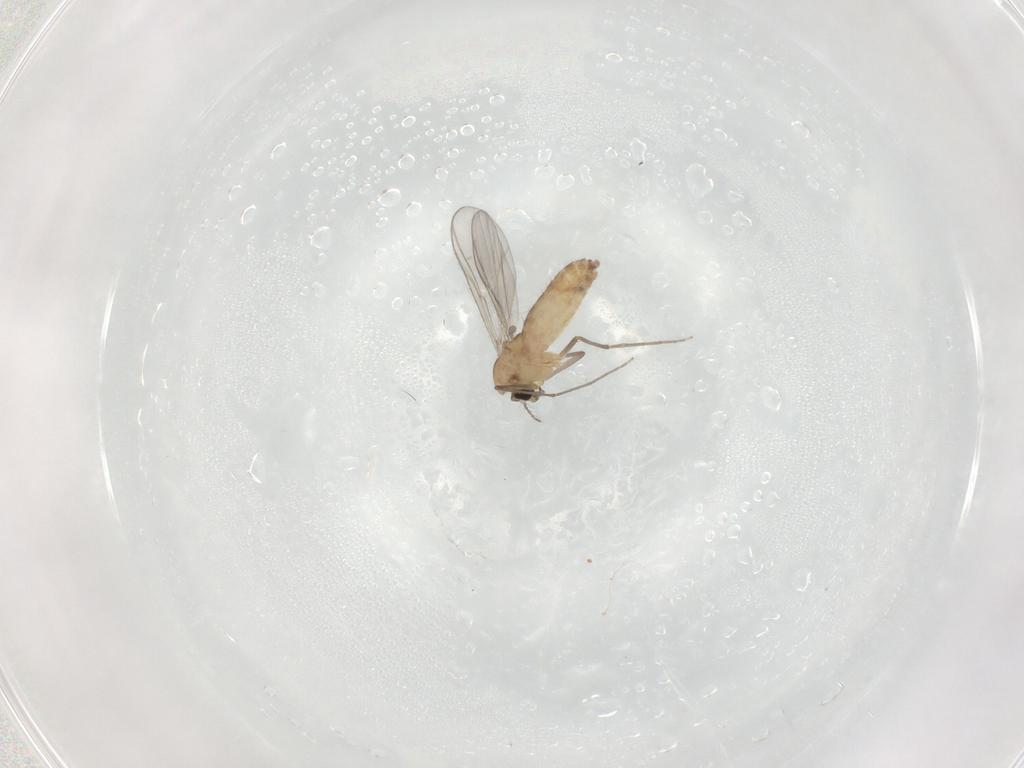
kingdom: Animalia
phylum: Arthropoda
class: Insecta
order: Diptera
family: Chironomidae
